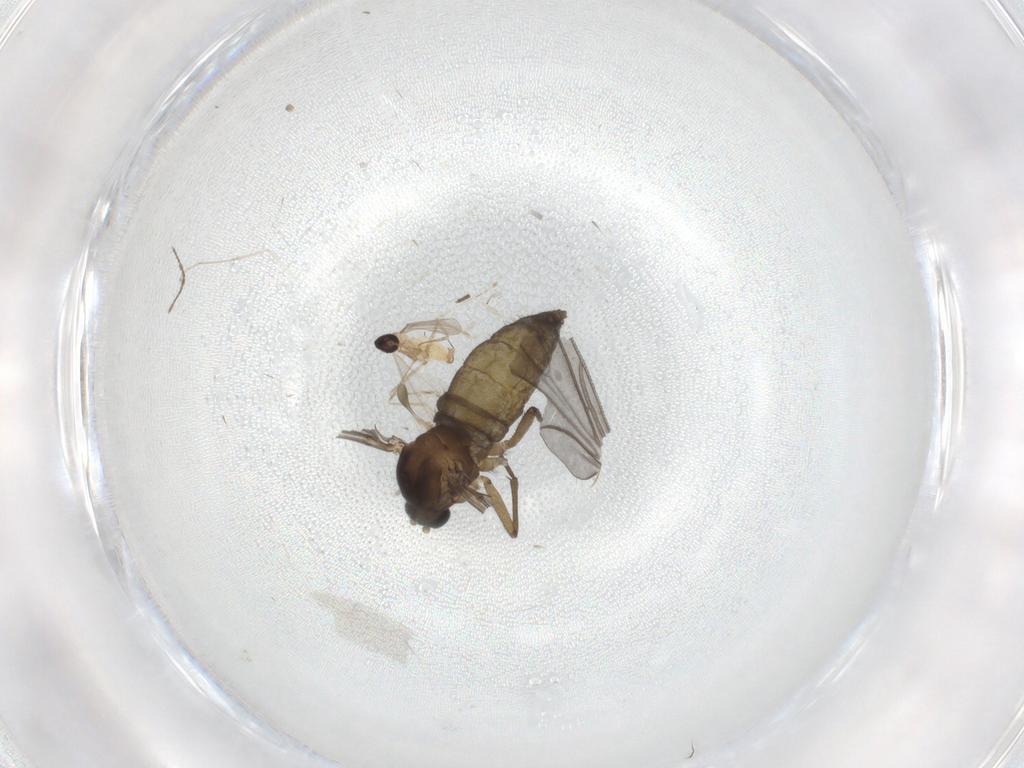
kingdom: Animalia
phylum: Arthropoda
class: Insecta
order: Diptera
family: Sciaridae
